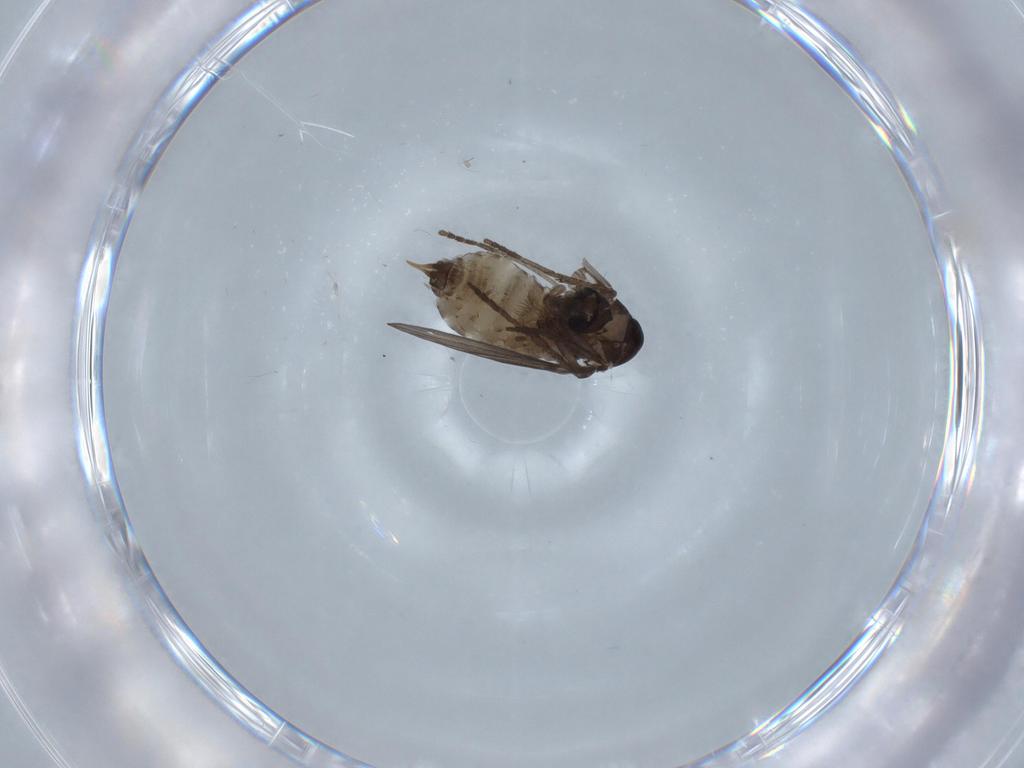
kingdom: Animalia
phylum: Arthropoda
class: Insecta
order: Diptera
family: Psychodidae
